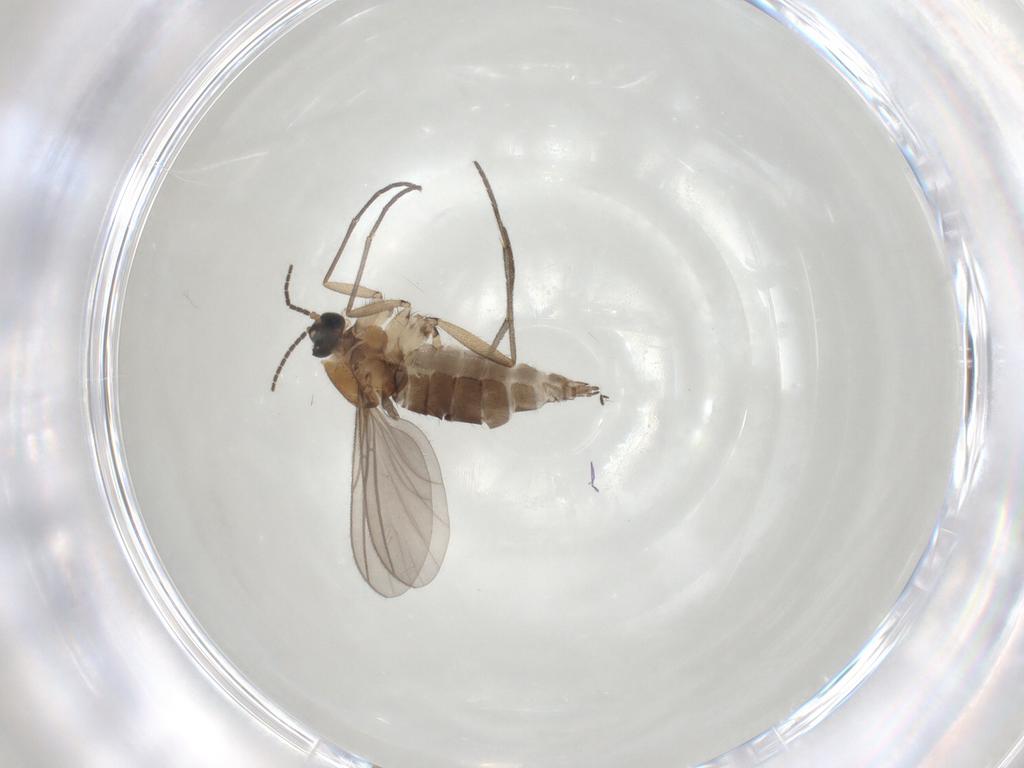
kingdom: Animalia
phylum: Arthropoda
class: Insecta
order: Diptera
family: Sciaridae
